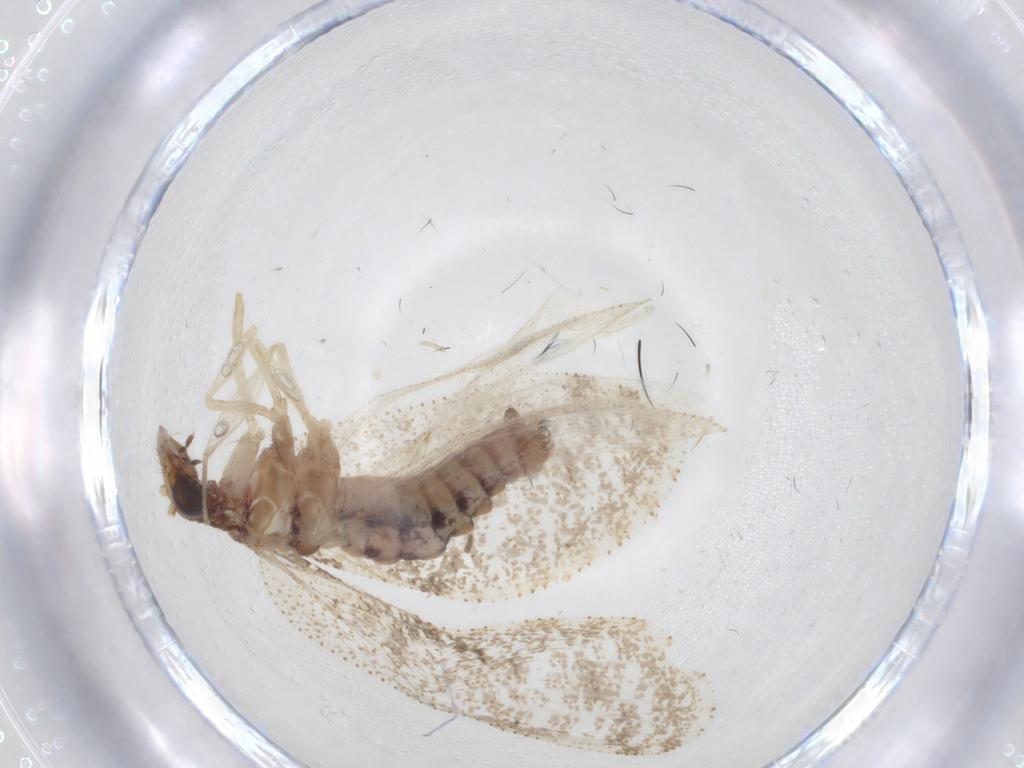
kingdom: Animalia
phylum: Arthropoda
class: Insecta
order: Neuroptera
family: Hemerobiidae
